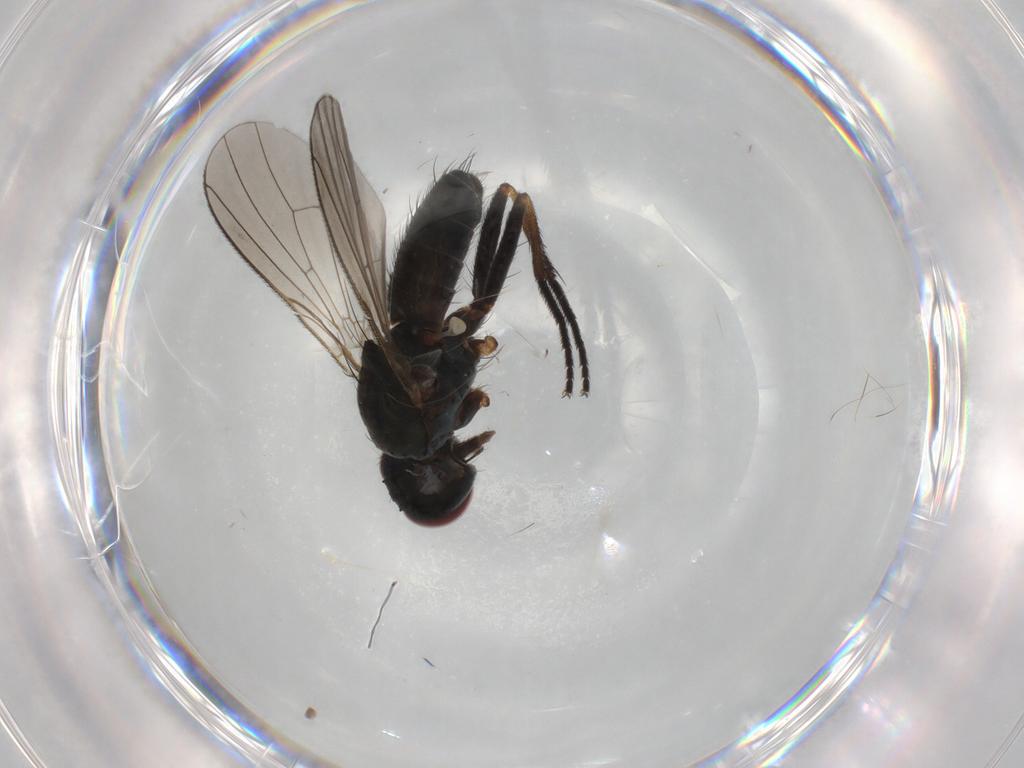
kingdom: Animalia
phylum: Arthropoda
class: Insecta
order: Diptera
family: Muscidae
